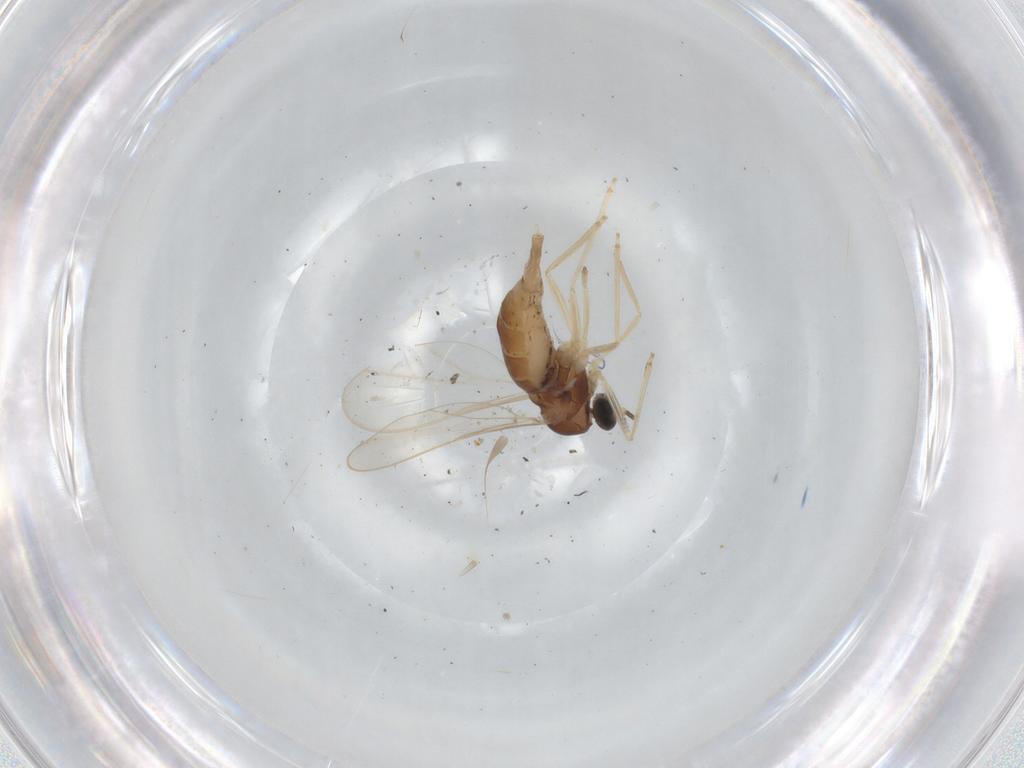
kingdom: Animalia
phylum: Arthropoda
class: Insecta
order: Diptera
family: Cecidomyiidae
